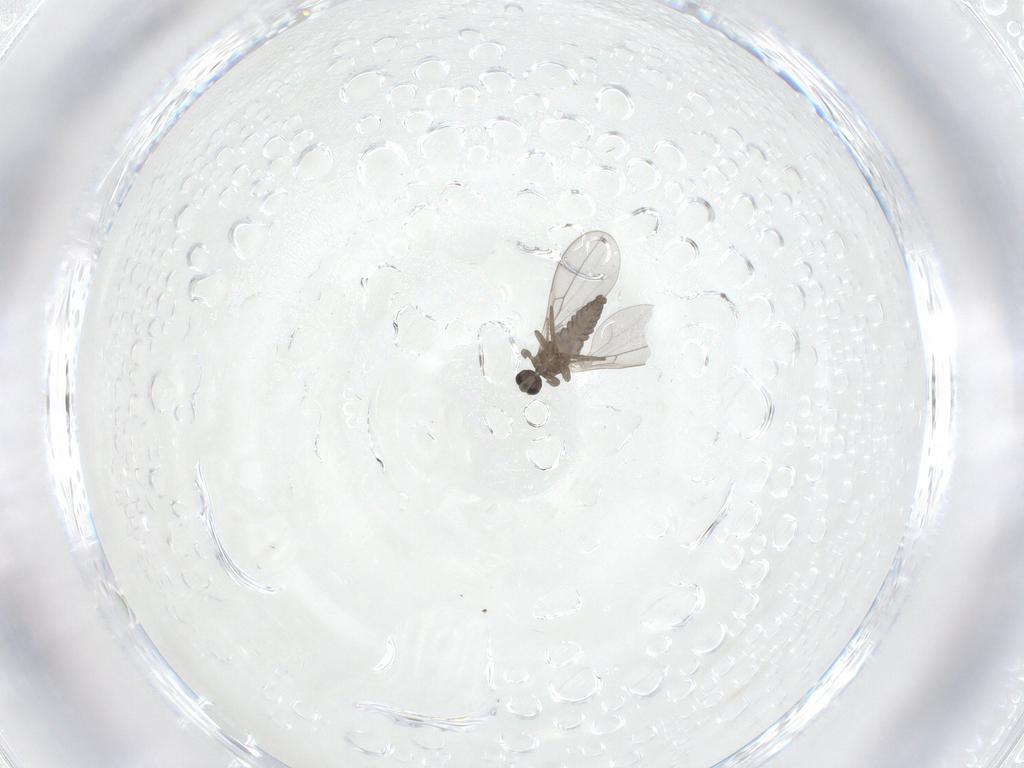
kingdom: Animalia
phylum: Arthropoda
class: Insecta
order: Diptera
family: Cecidomyiidae
